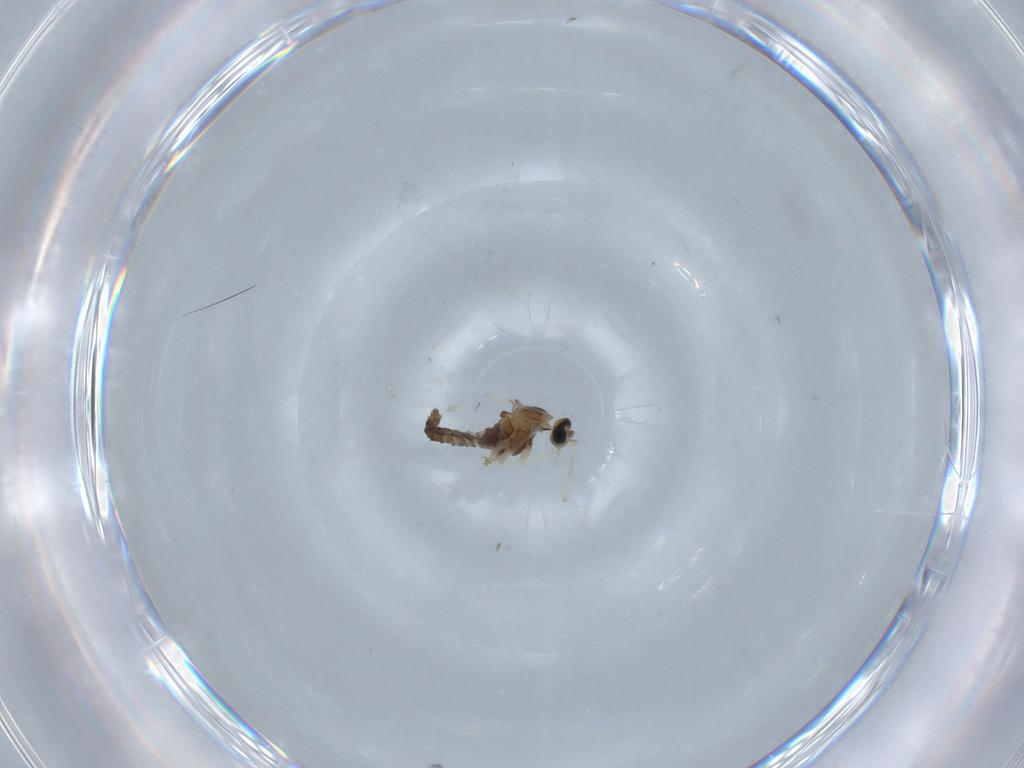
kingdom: Animalia
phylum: Arthropoda
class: Insecta
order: Diptera
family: Cecidomyiidae
